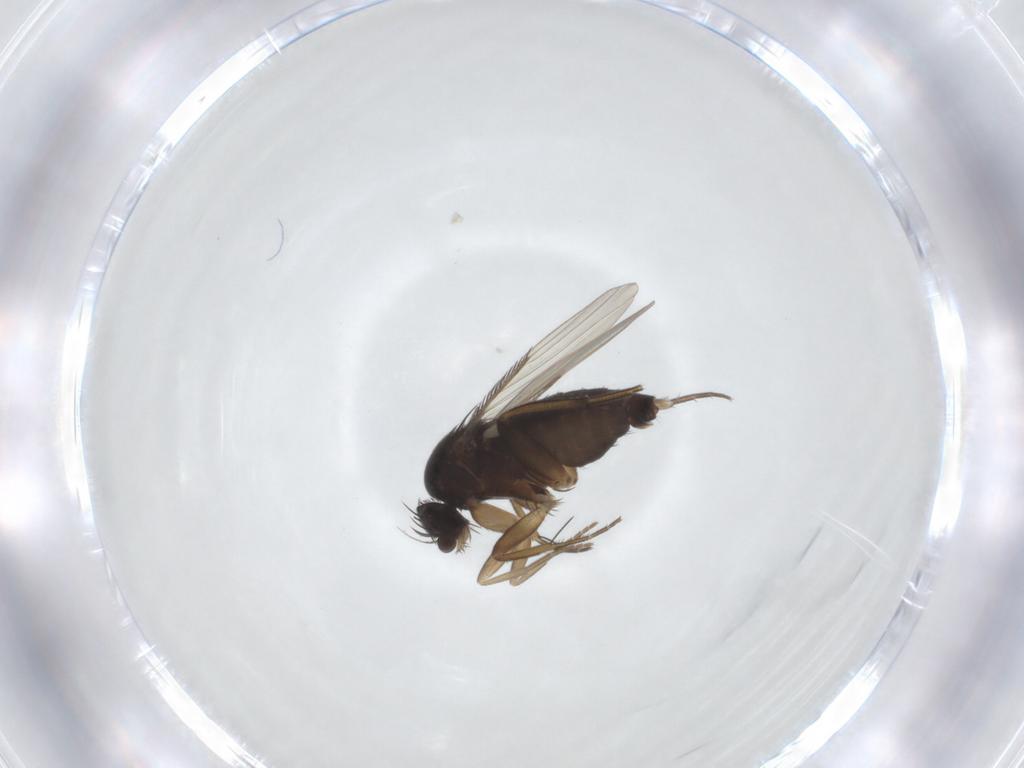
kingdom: Animalia
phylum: Arthropoda
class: Insecta
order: Diptera
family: Phoridae
